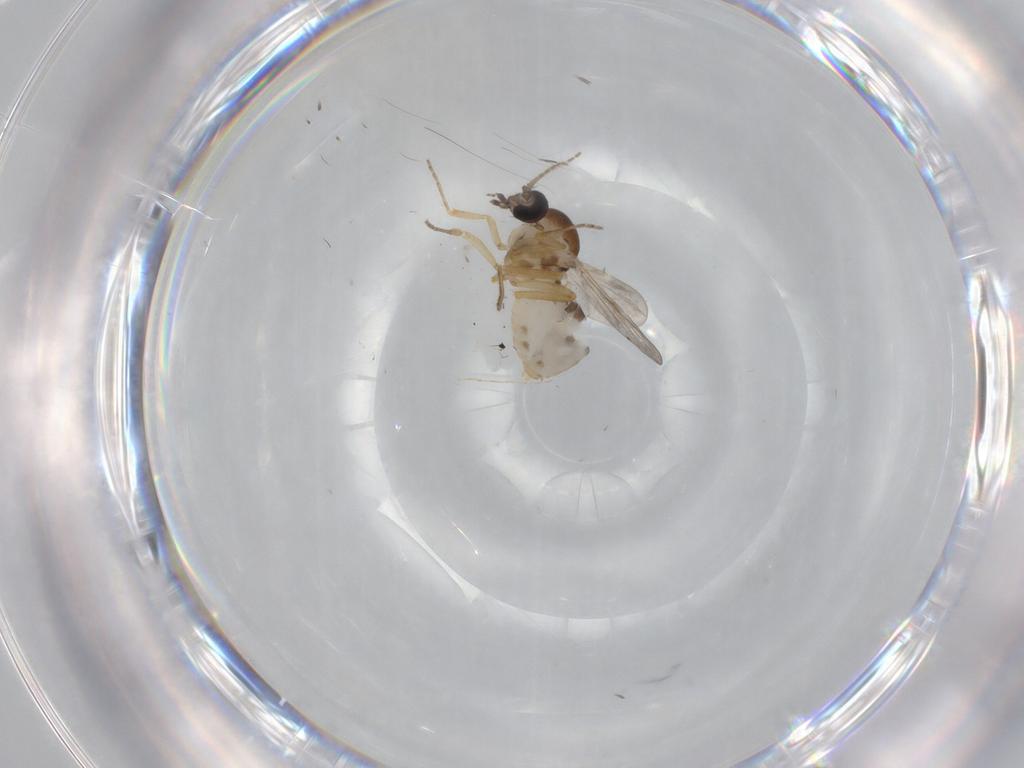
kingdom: Animalia
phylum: Arthropoda
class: Insecta
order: Diptera
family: Ceratopogonidae
